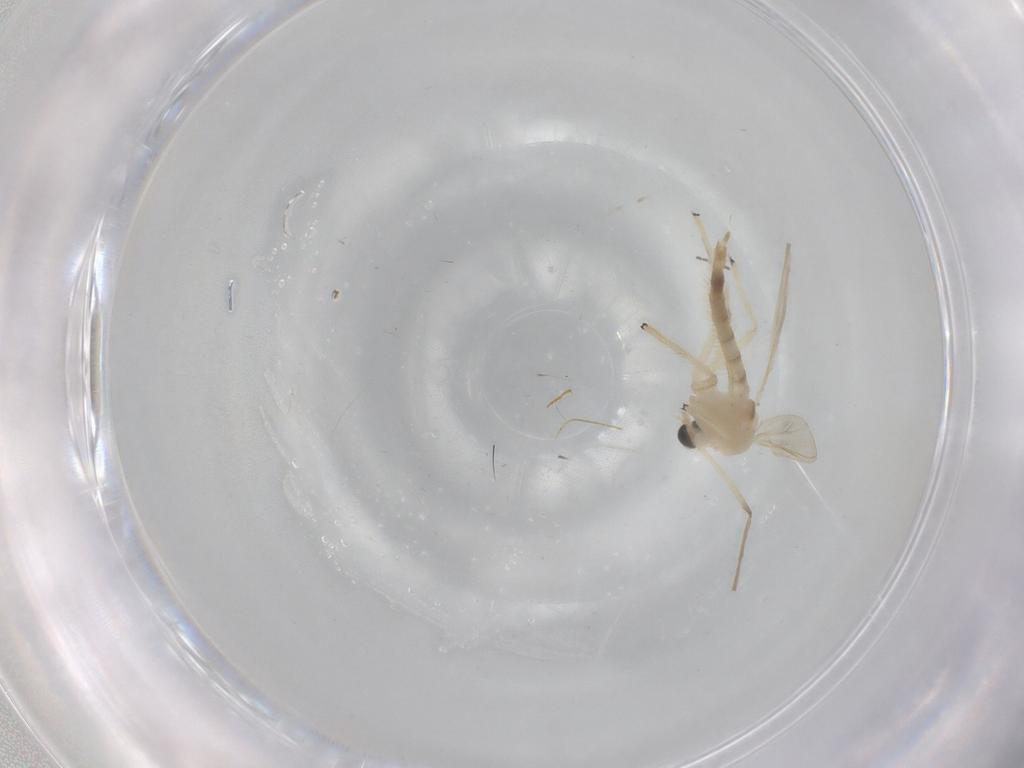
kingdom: Animalia
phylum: Arthropoda
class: Insecta
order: Diptera
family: Chironomidae
